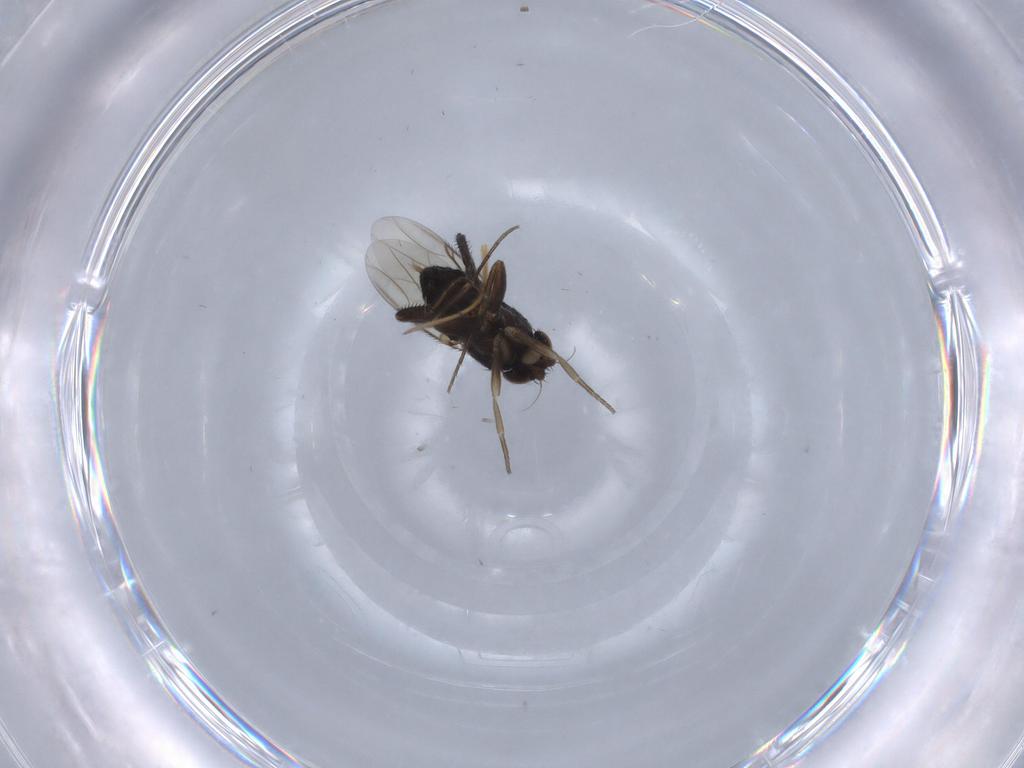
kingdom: Animalia
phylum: Arthropoda
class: Insecta
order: Diptera
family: Phoridae
